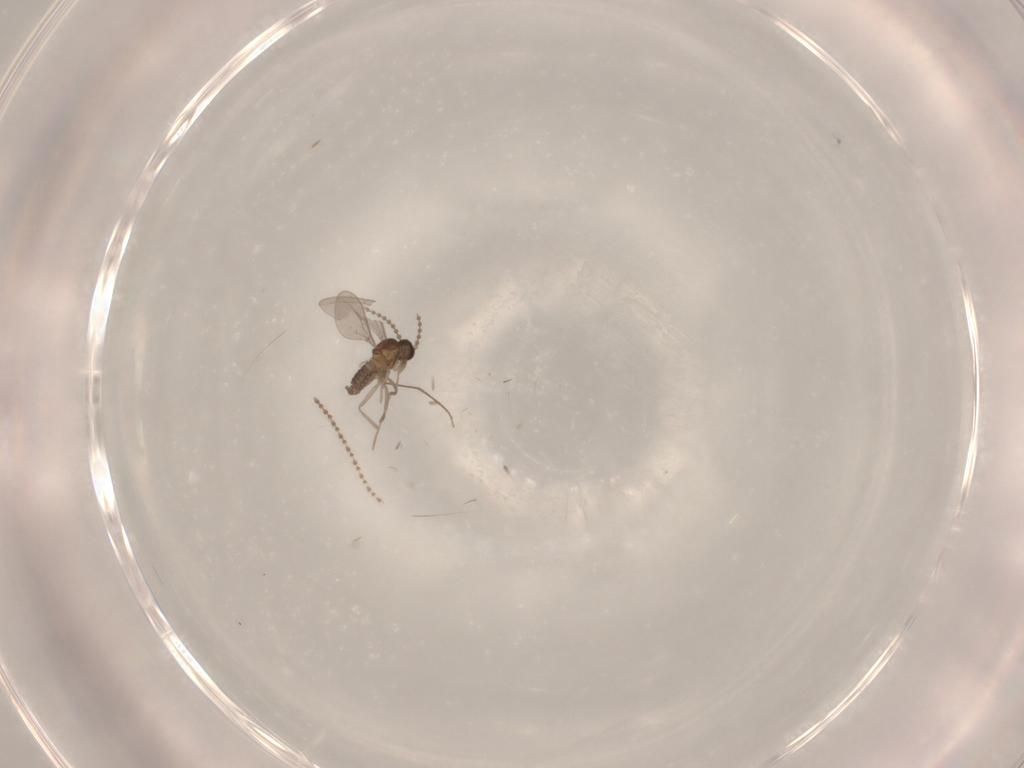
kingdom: Animalia
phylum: Arthropoda
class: Insecta
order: Diptera
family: Cecidomyiidae
